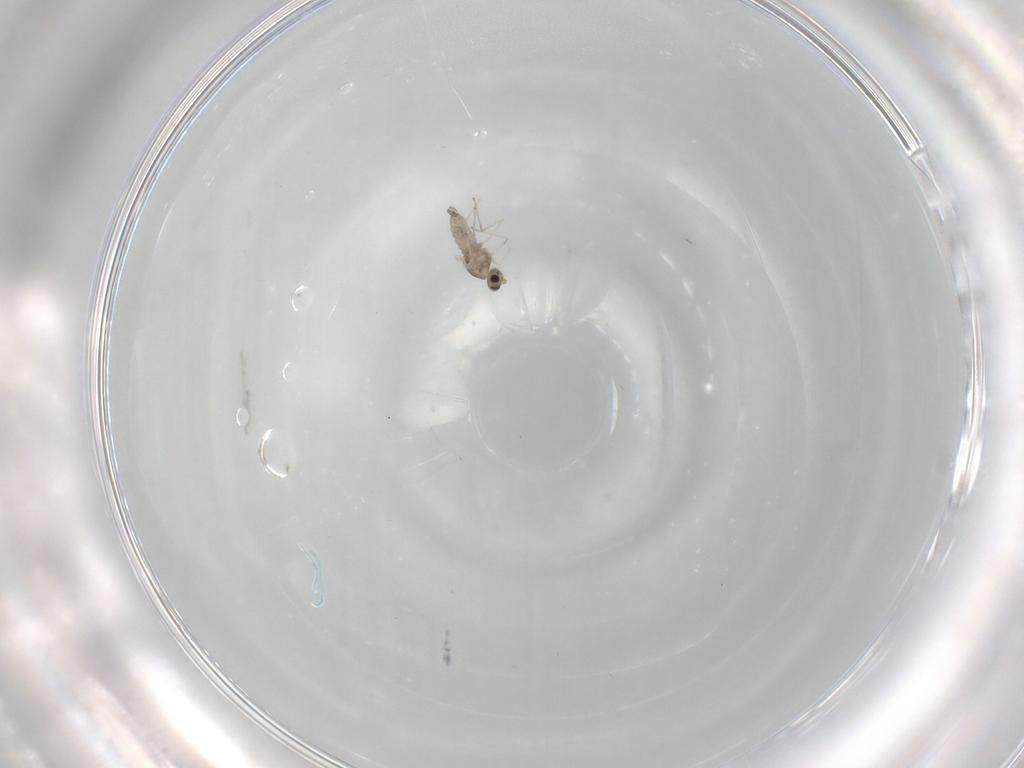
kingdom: Animalia
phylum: Arthropoda
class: Insecta
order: Diptera
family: Cecidomyiidae
